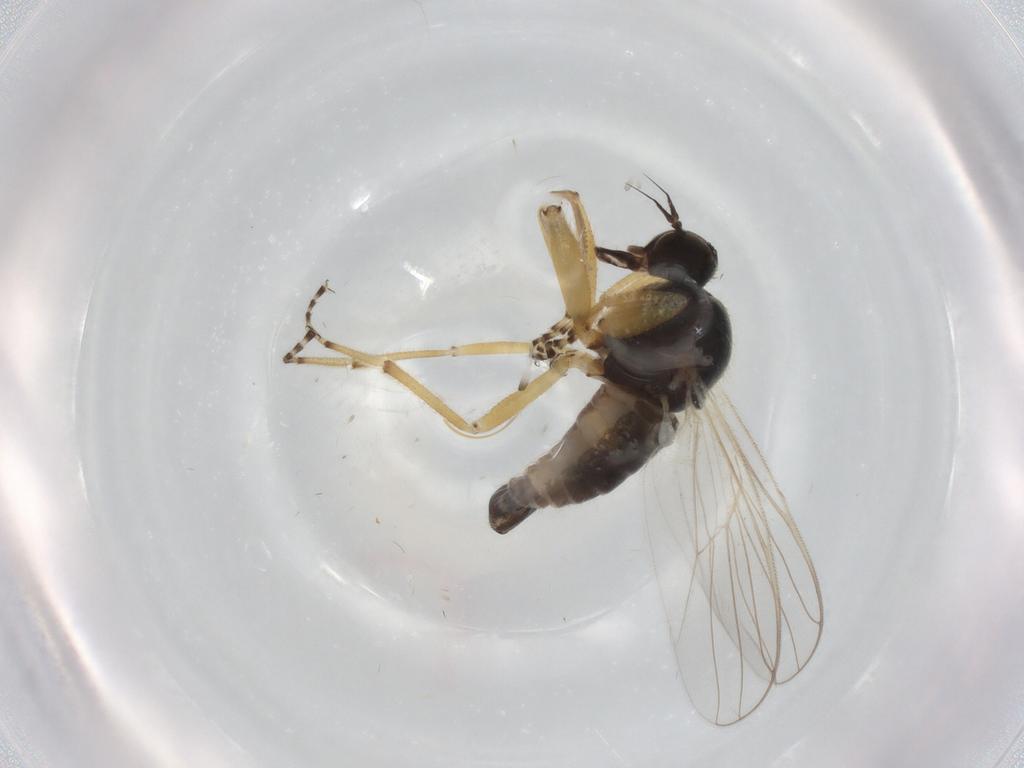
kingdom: Animalia
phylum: Arthropoda
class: Insecta
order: Diptera
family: Hybotidae
